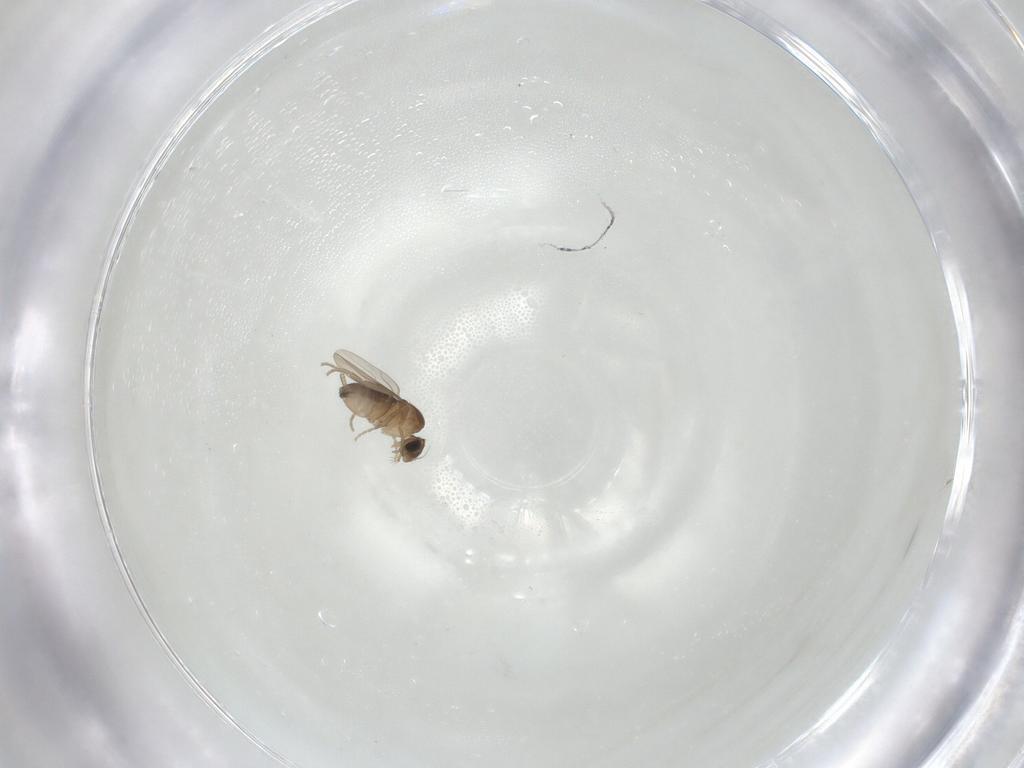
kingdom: Animalia
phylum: Arthropoda
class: Insecta
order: Diptera
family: Phoridae
